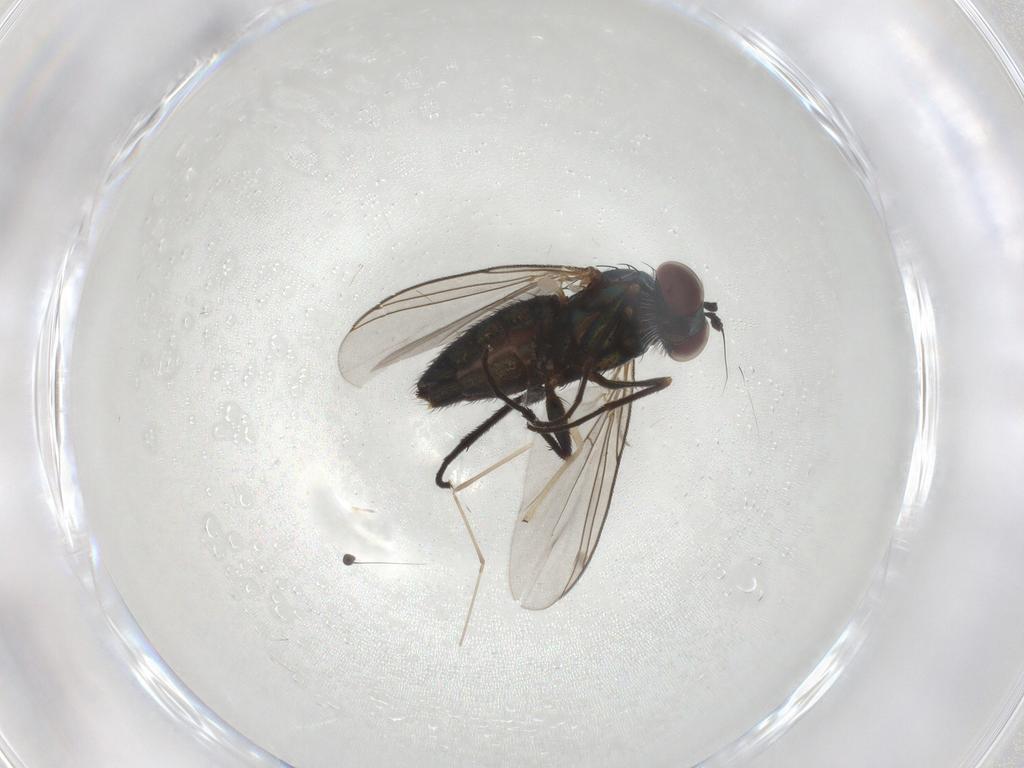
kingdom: Animalia
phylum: Arthropoda
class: Insecta
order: Diptera
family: Dolichopodidae
